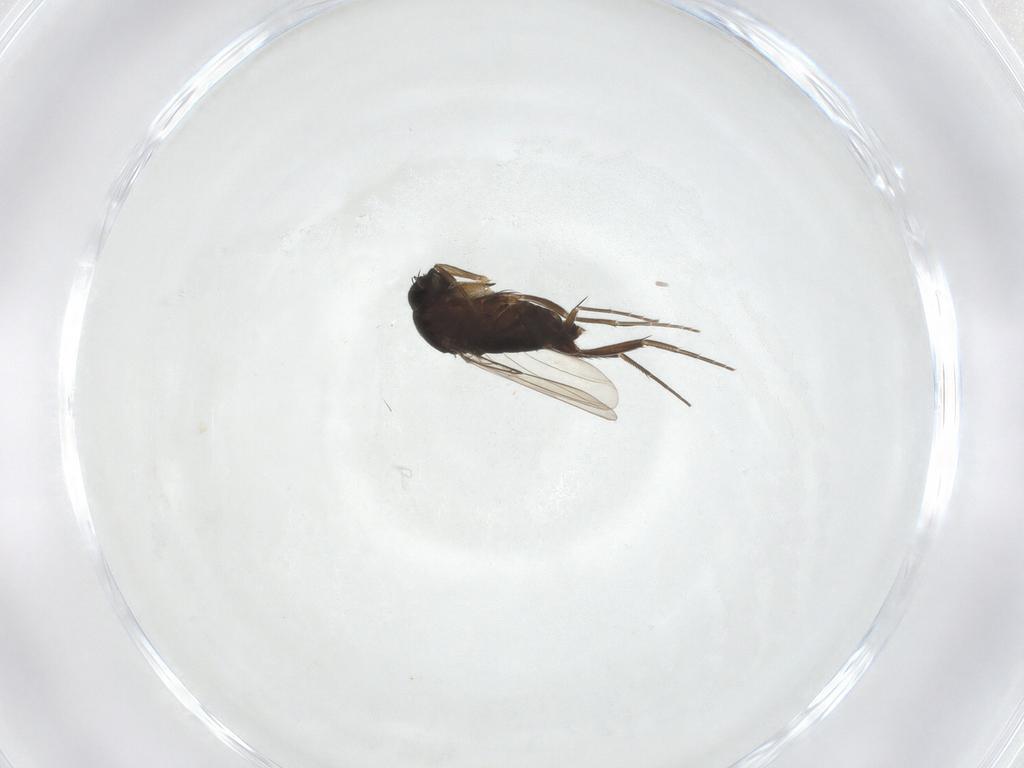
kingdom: Animalia
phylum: Arthropoda
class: Insecta
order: Diptera
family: Phoridae
